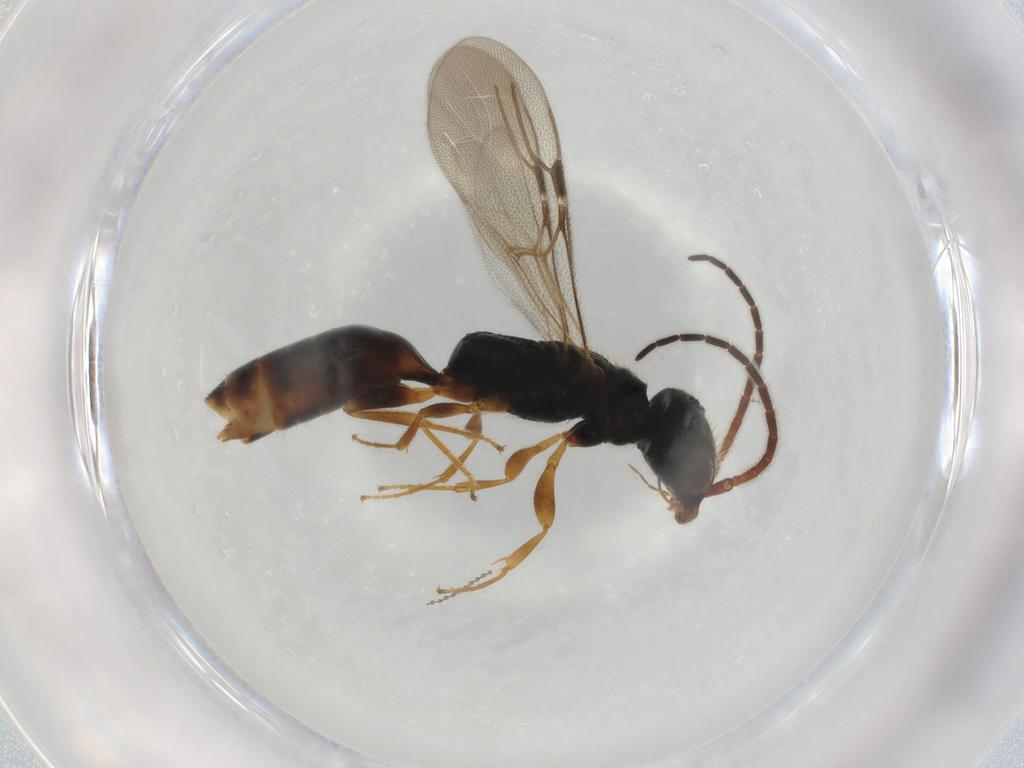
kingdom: Animalia
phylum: Arthropoda
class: Insecta
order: Hymenoptera
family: Bethylidae
